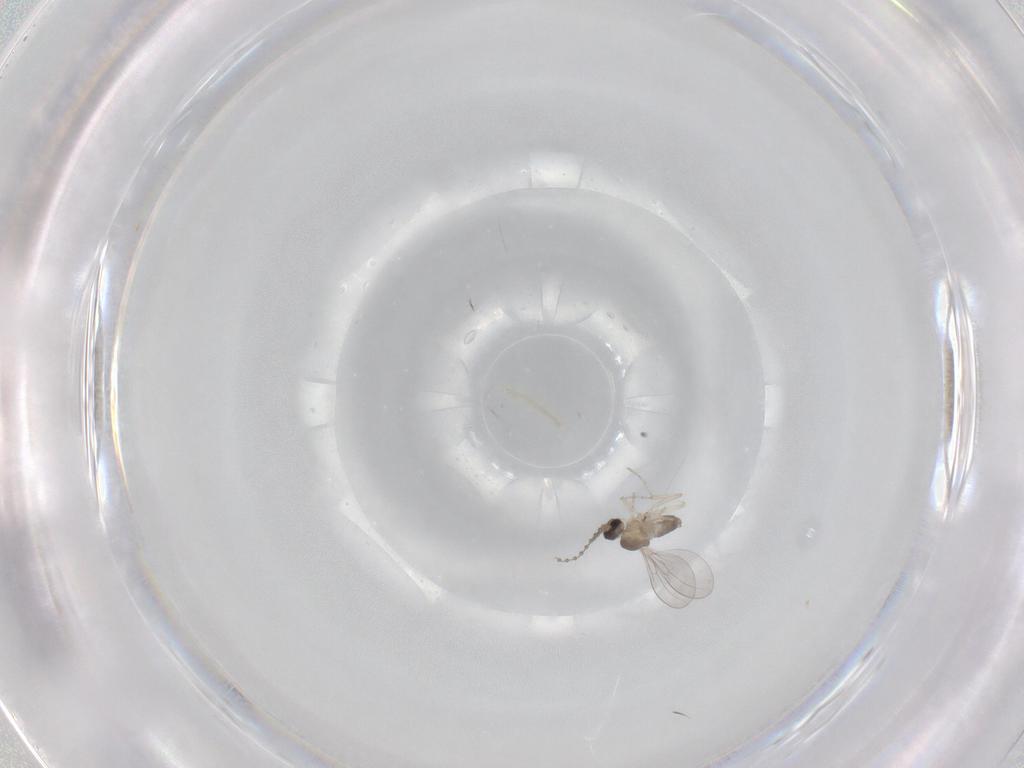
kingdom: Animalia
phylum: Arthropoda
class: Insecta
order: Diptera
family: Cecidomyiidae
